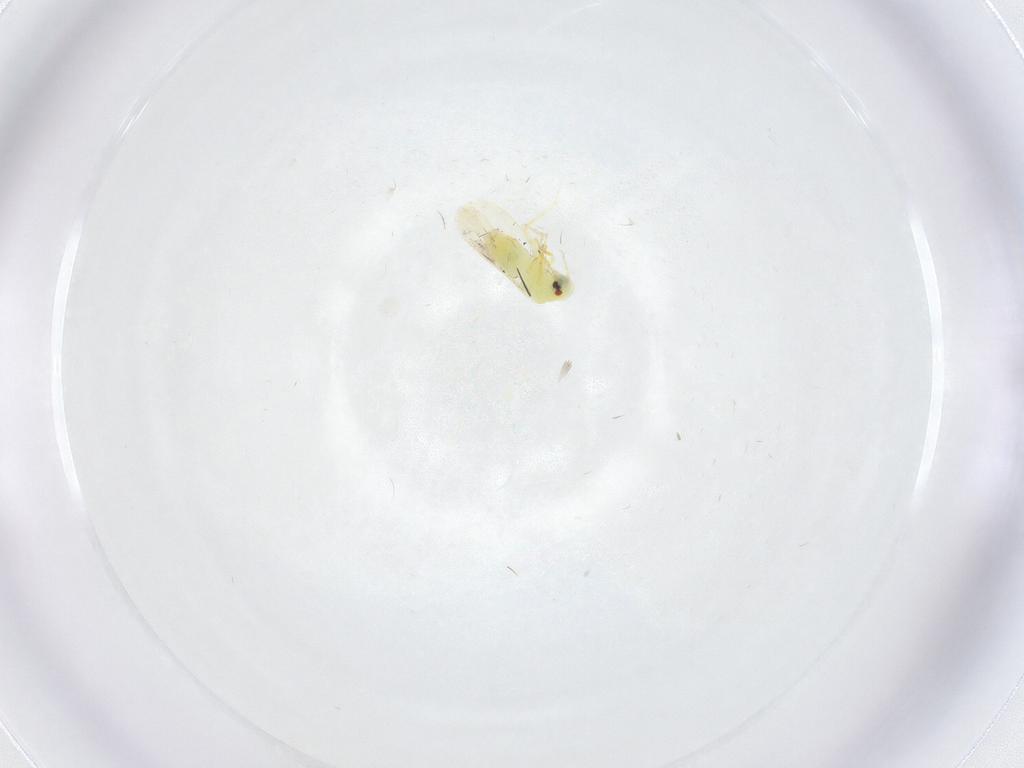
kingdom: Animalia
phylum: Arthropoda
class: Insecta
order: Hemiptera
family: Aleyrodidae
